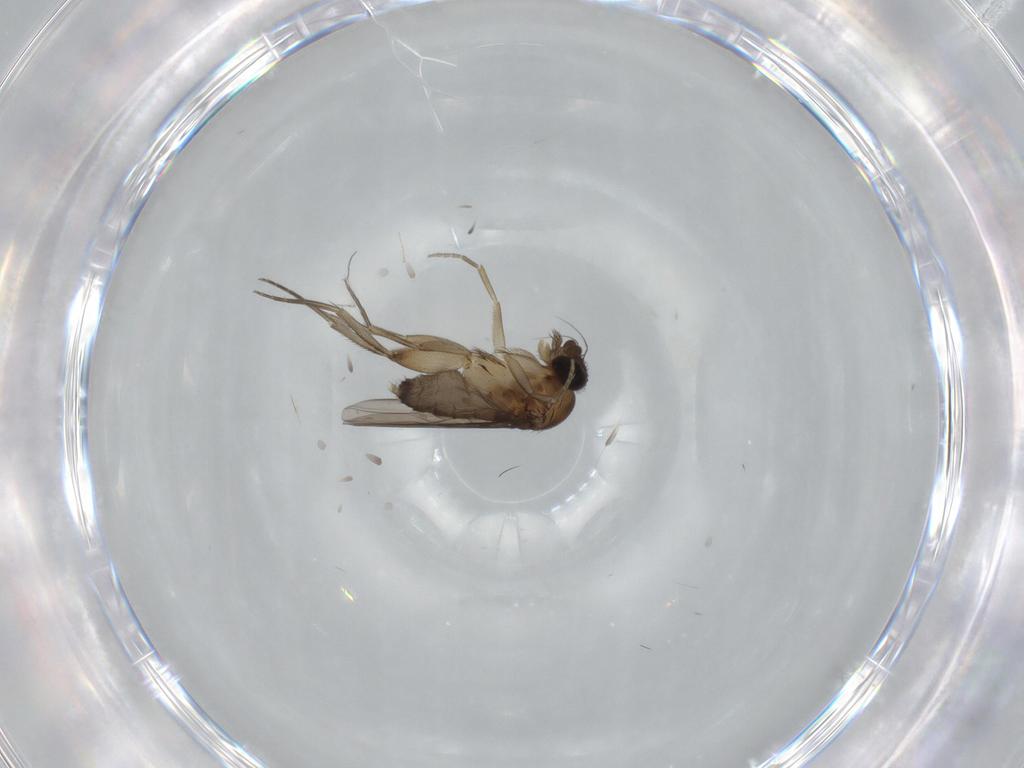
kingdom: Animalia
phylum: Arthropoda
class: Insecta
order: Diptera
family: Phoridae
